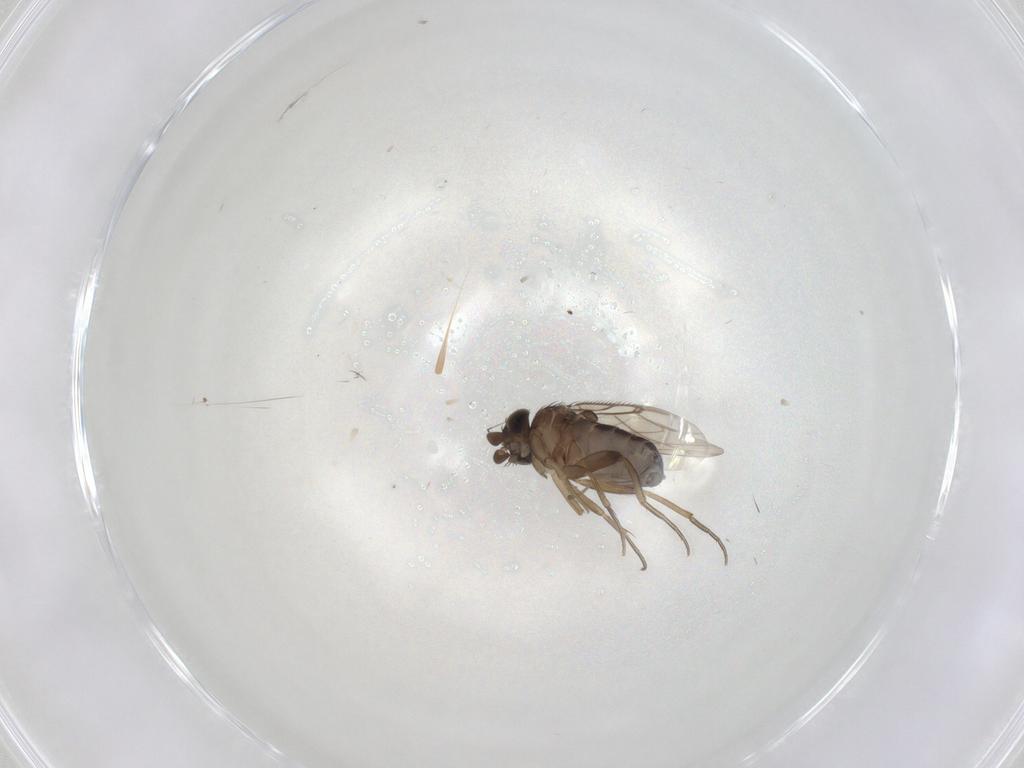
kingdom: Animalia
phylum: Arthropoda
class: Insecta
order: Diptera
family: Phoridae
